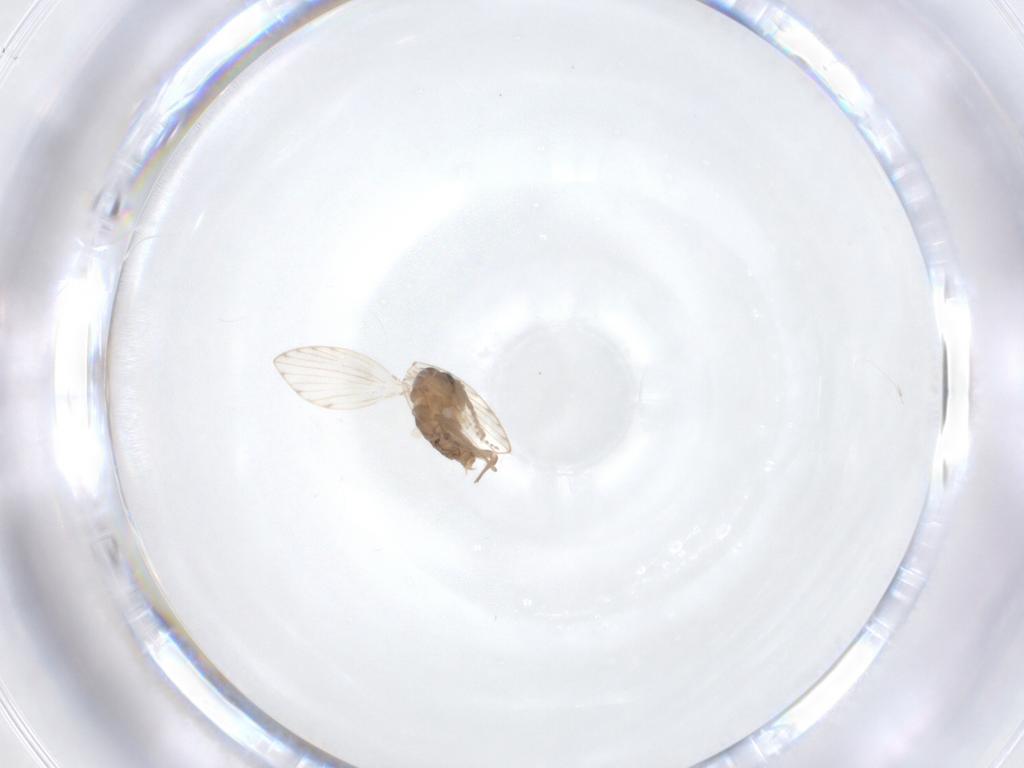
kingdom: Animalia
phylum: Arthropoda
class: Insecta
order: Diptera
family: Psychodidae
